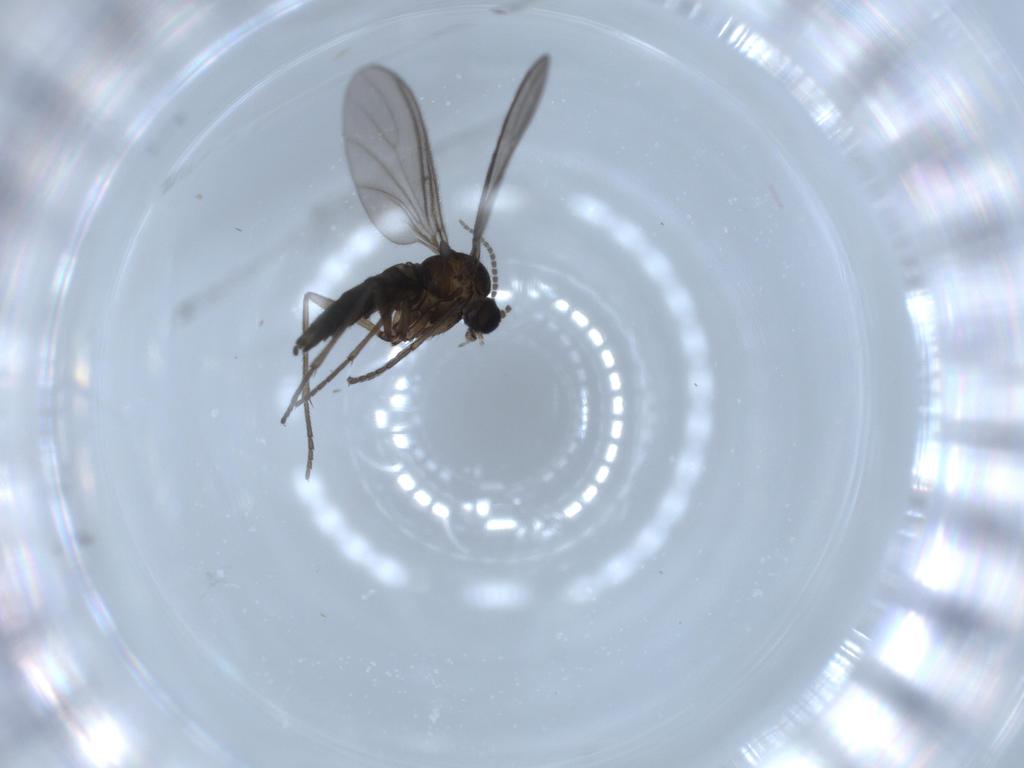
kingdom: Animalia
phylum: Arthropoda
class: Insecta
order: Diptera
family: Sciaridae
